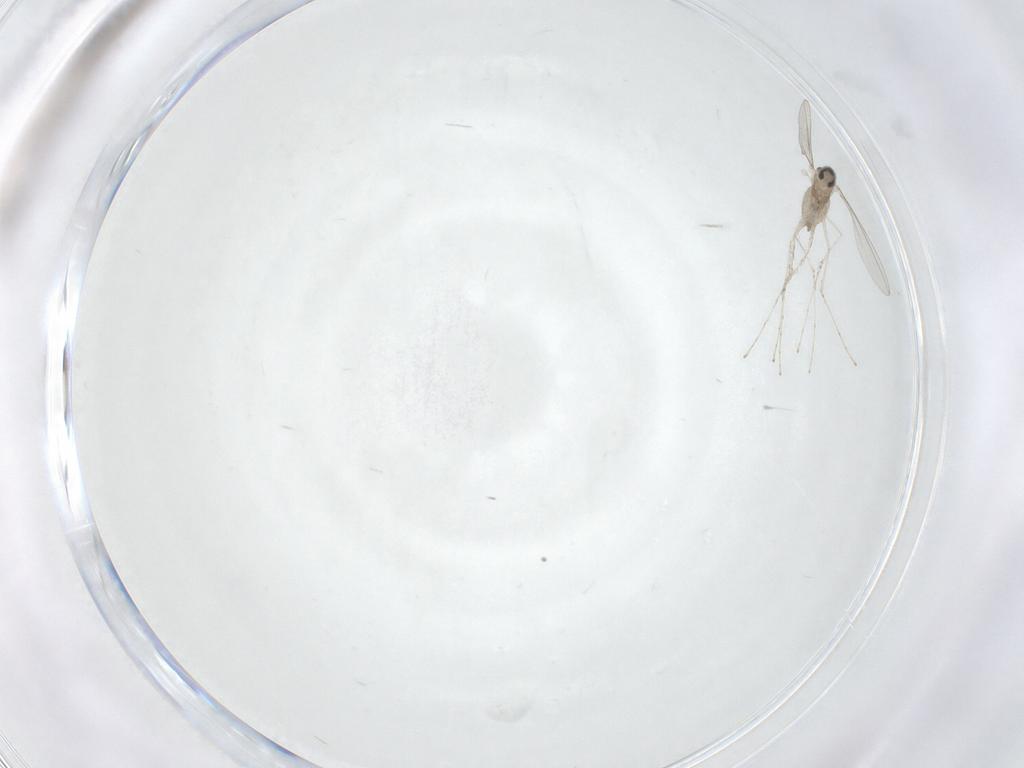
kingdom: Animalia
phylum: Arthropoda
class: Insecta
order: Diptera
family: Cecidomyiidae
